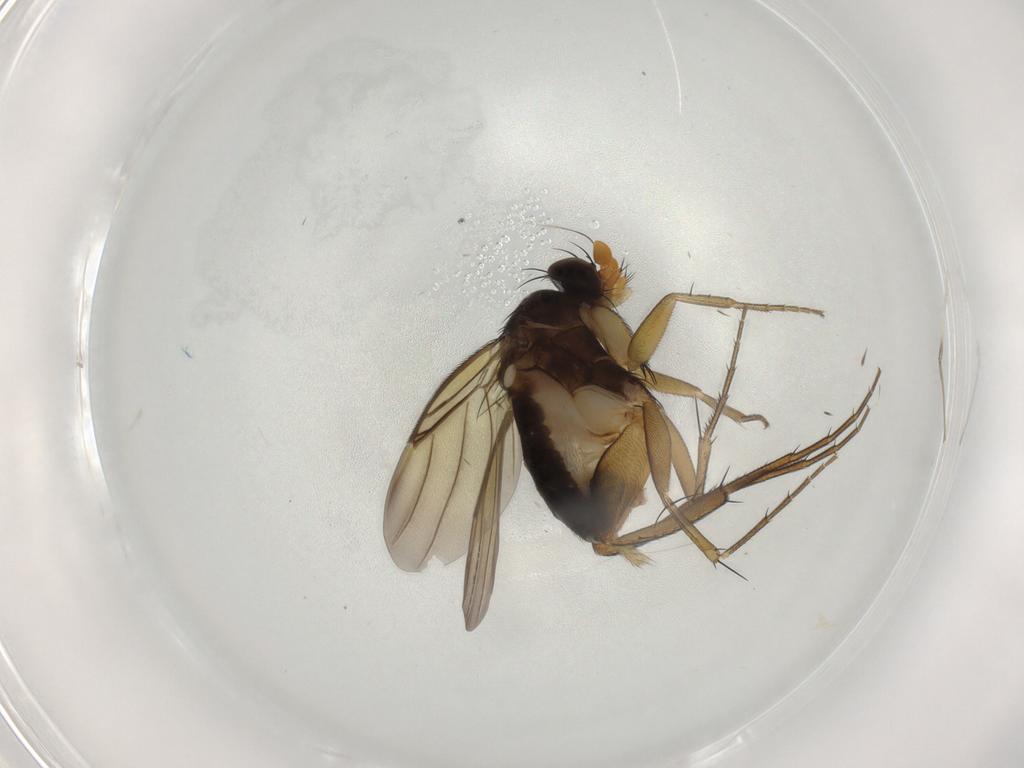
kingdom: Animalia
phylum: Arthropoda
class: Insecta
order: Diptera
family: Phoridae
